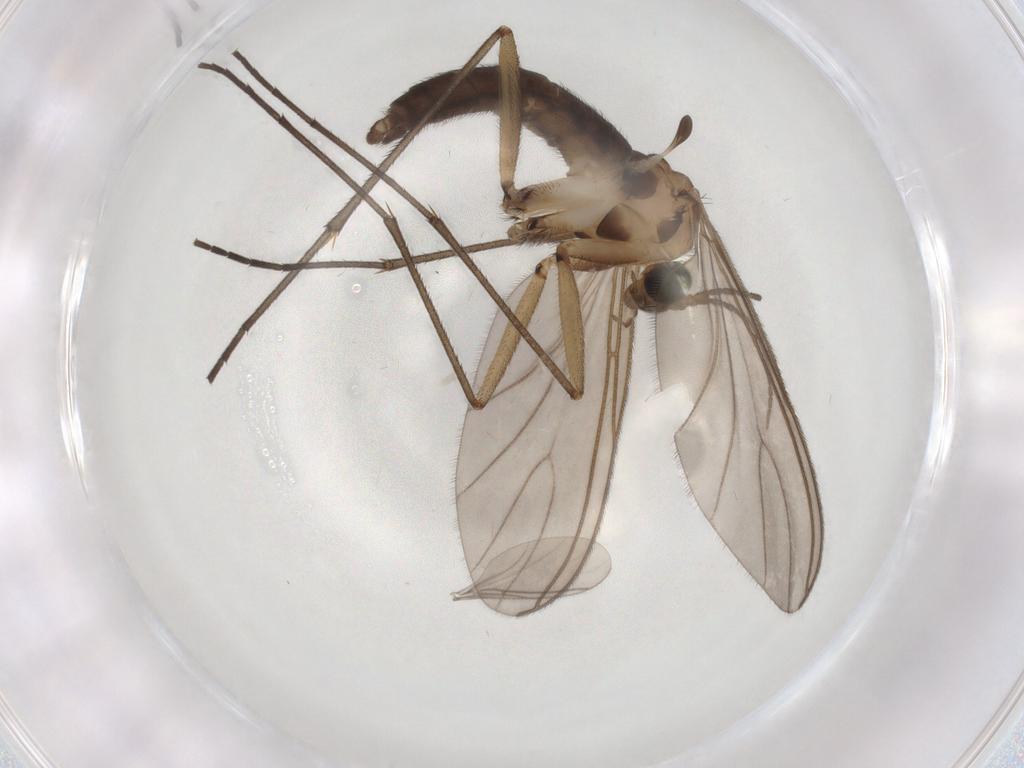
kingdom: Animalia
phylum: Arthropoda
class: Insecta
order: Diptera
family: Sciaridae
